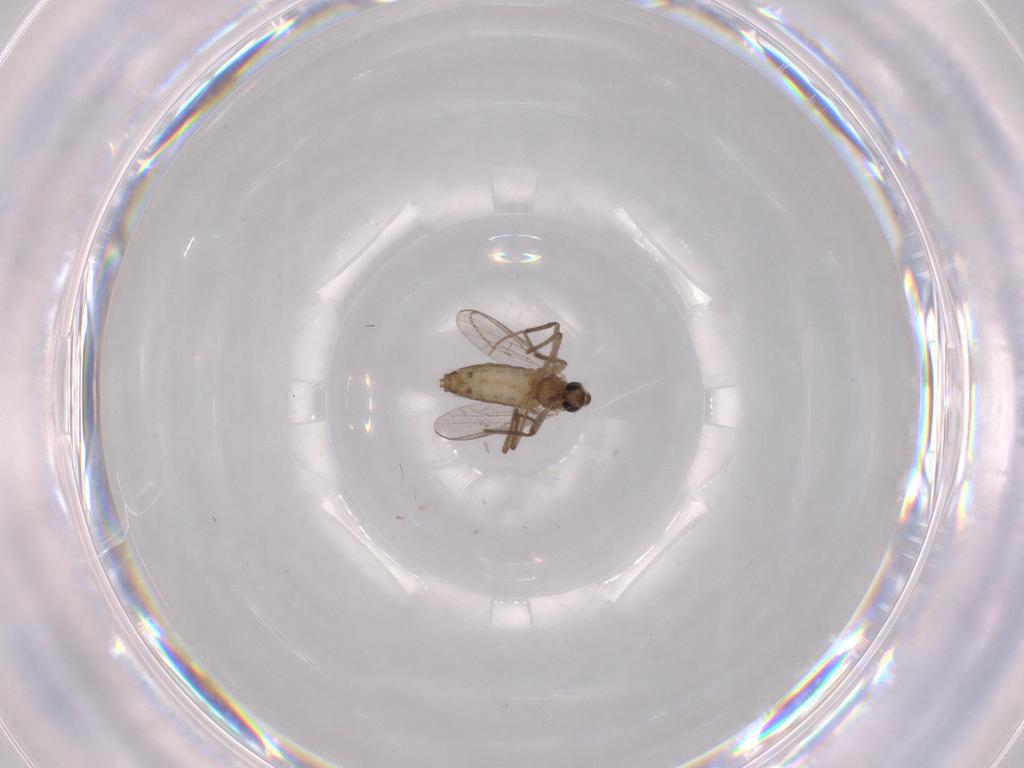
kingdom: Animalia
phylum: Arthropoda
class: Insecta
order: Diptera
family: Chironomidae
